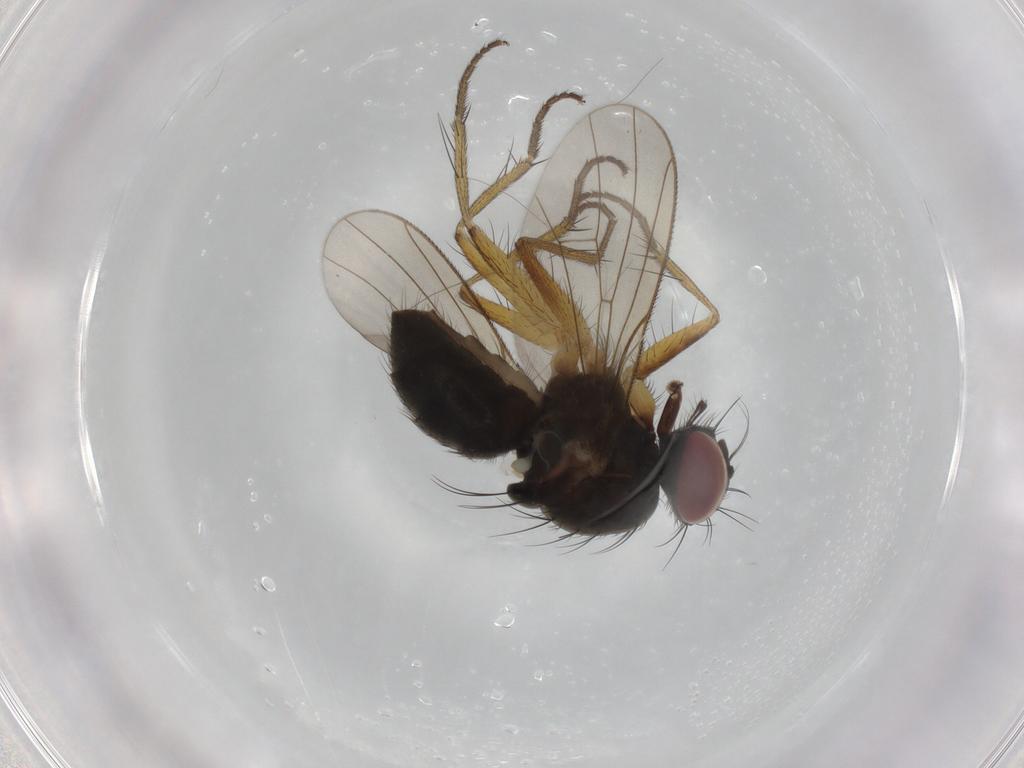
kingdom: Animalia
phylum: Arthropoda
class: Insecta
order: Diptera
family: Muscidae
